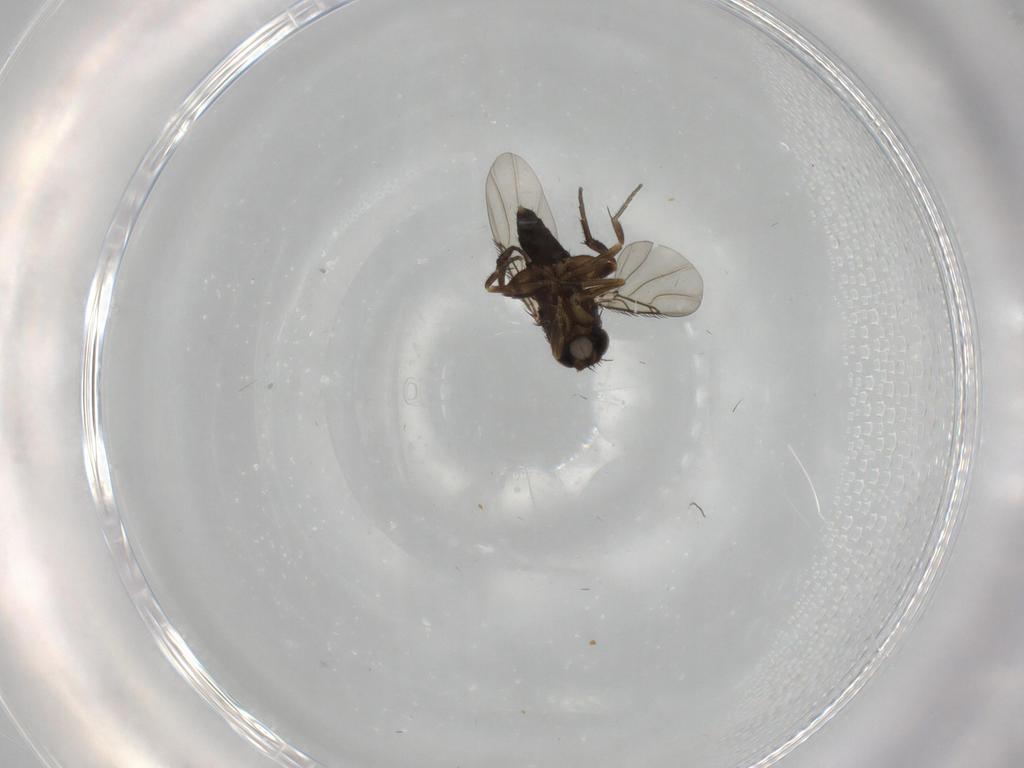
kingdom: Animalia
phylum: Arthropoda
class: Insecta
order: Diptera
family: Phoridae
